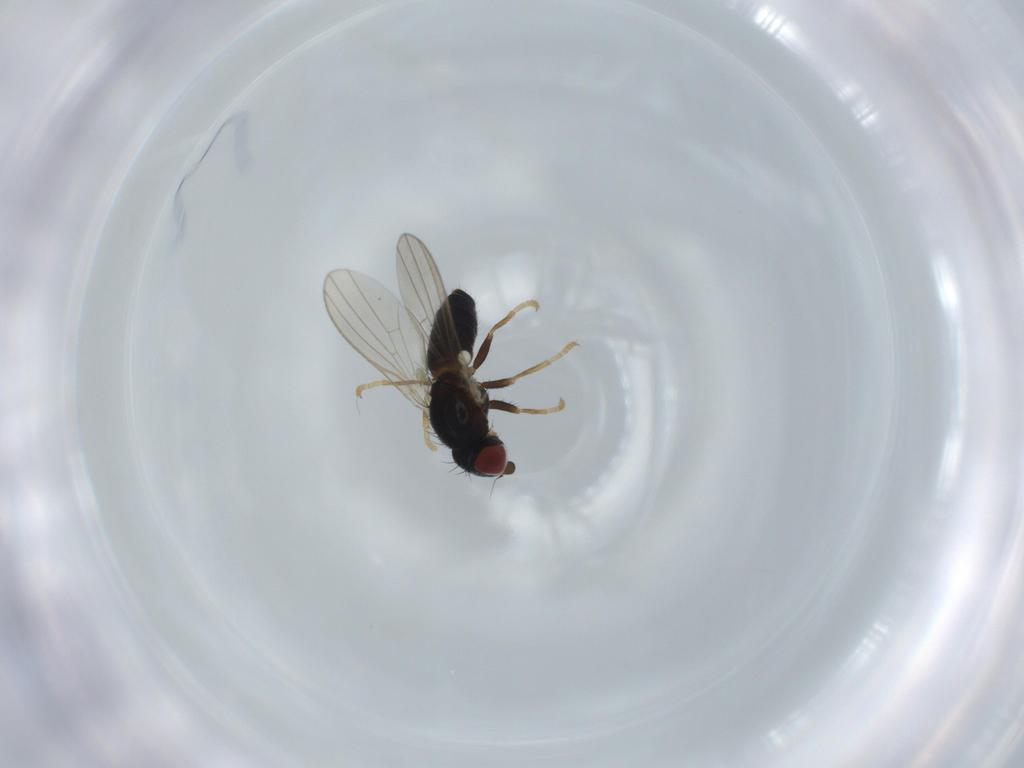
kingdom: Animalia
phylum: Arthropoda
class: Insecta
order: Diptera
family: Chamaemyiidae
